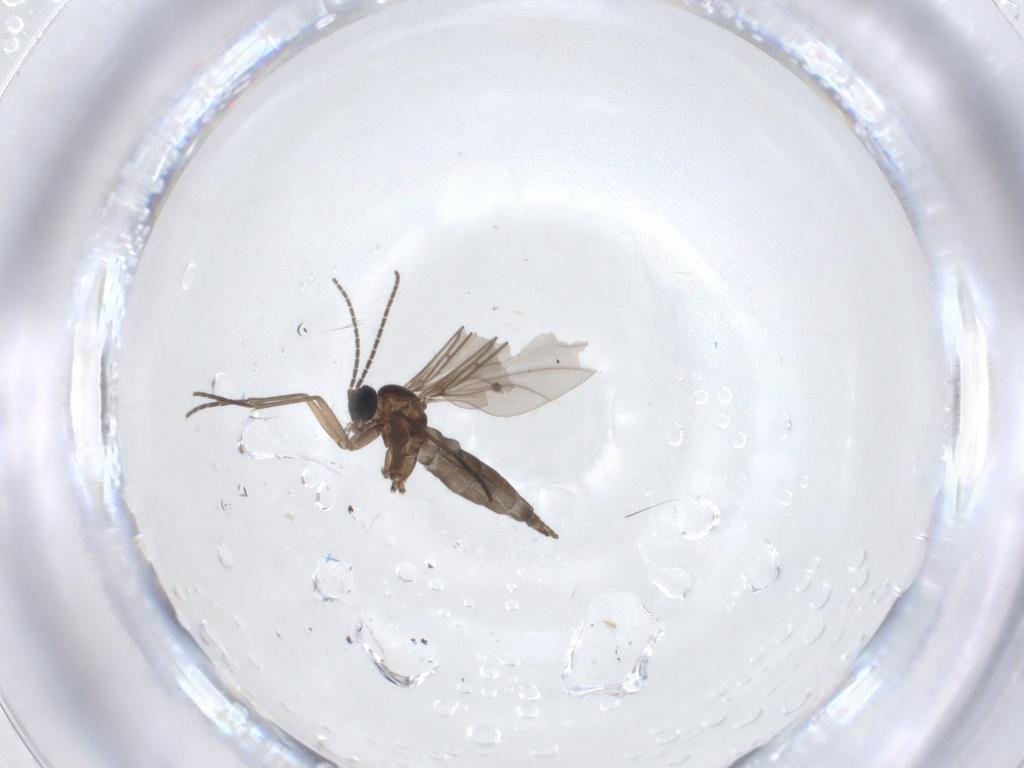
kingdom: Animalia
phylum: Arthropoda
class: Insecta
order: Diptera
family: Sciaridae
